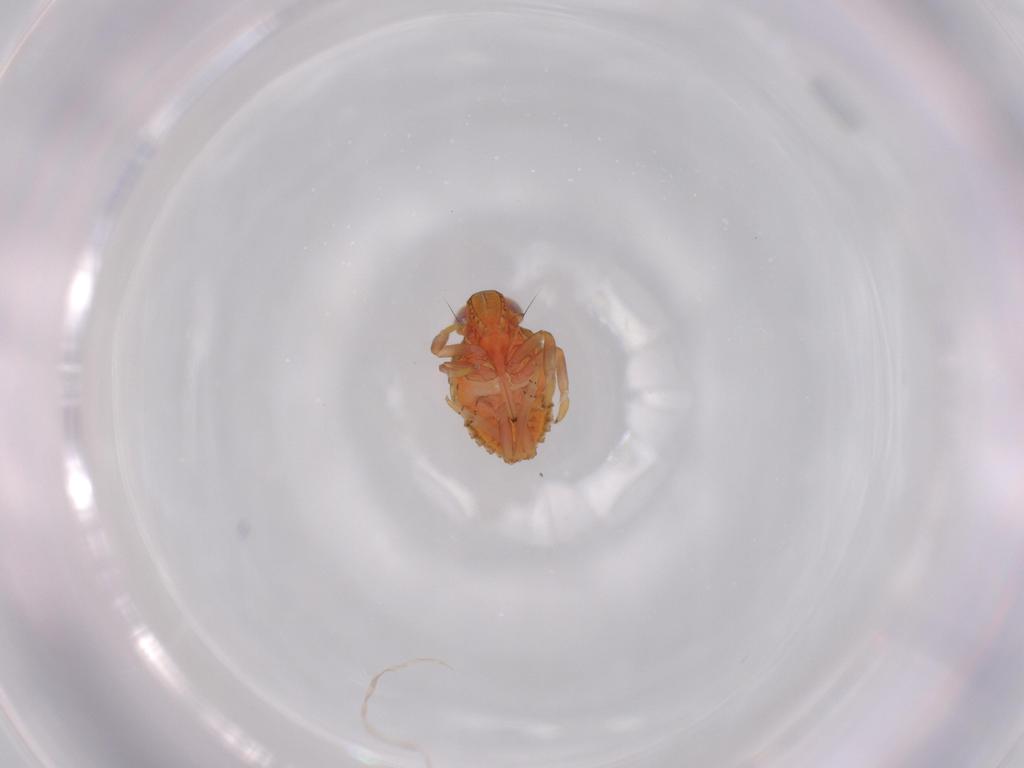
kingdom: Animalia
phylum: Arthropoda
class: Insecta
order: Hemiptera
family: Issidae
